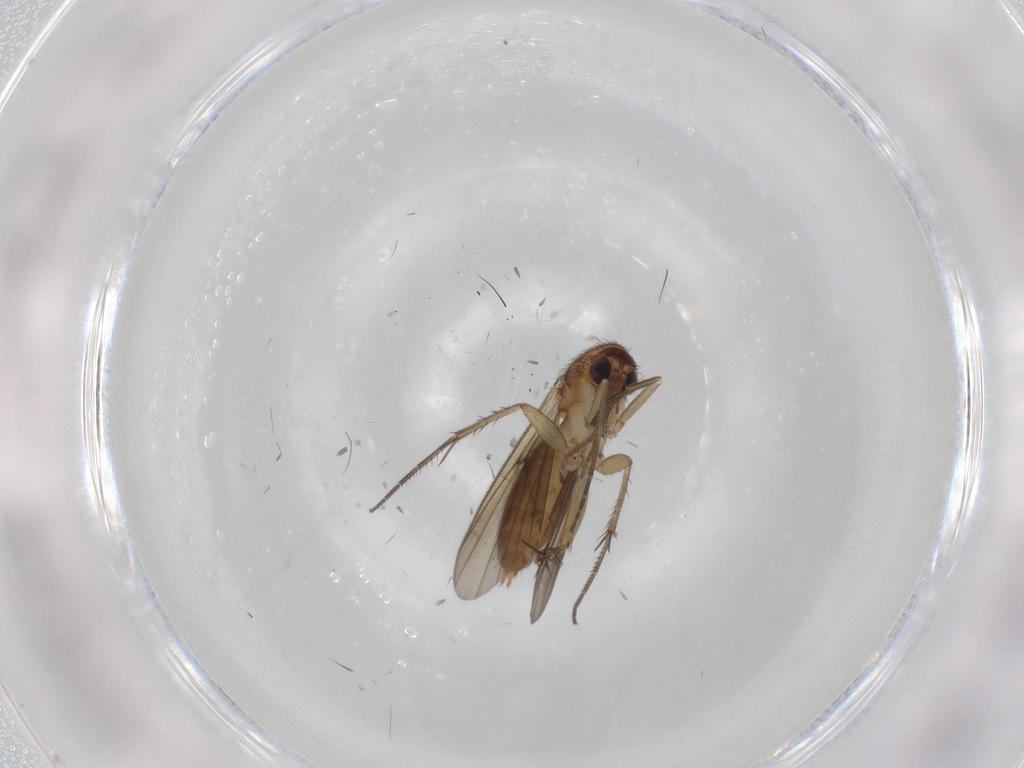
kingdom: Animalia
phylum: Arthropoda
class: Insecta
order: Diptera
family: Mycetophilidae
